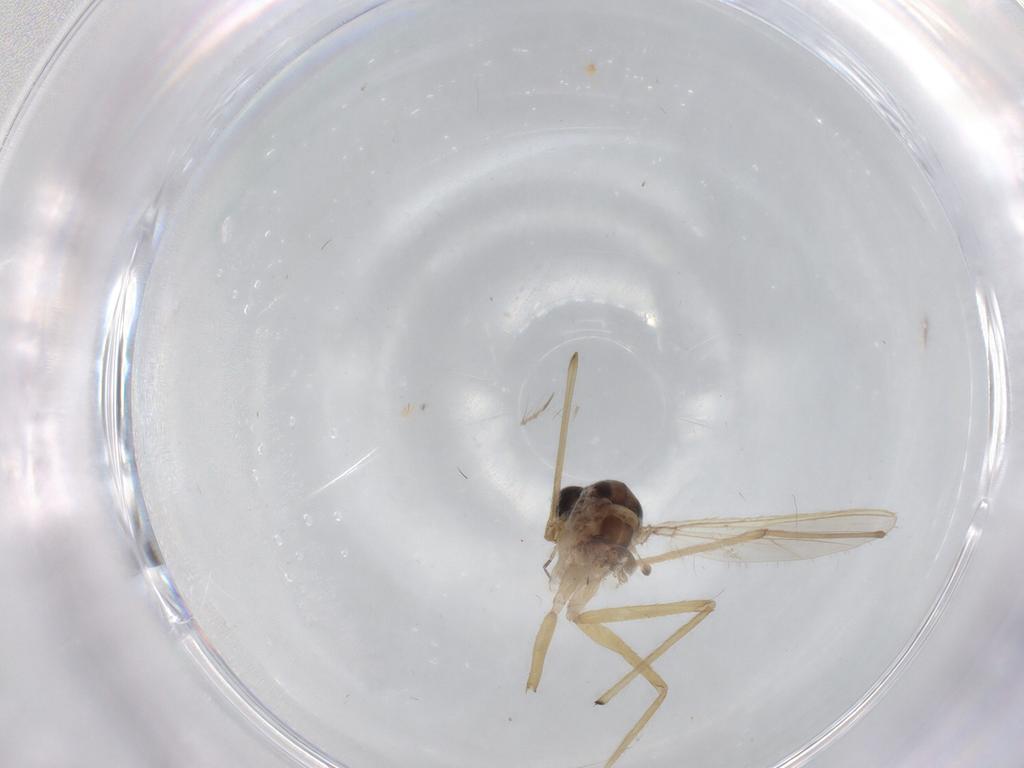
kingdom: Animalia
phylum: Arthropoda
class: Insecta
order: Diptera
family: Chironomidae
